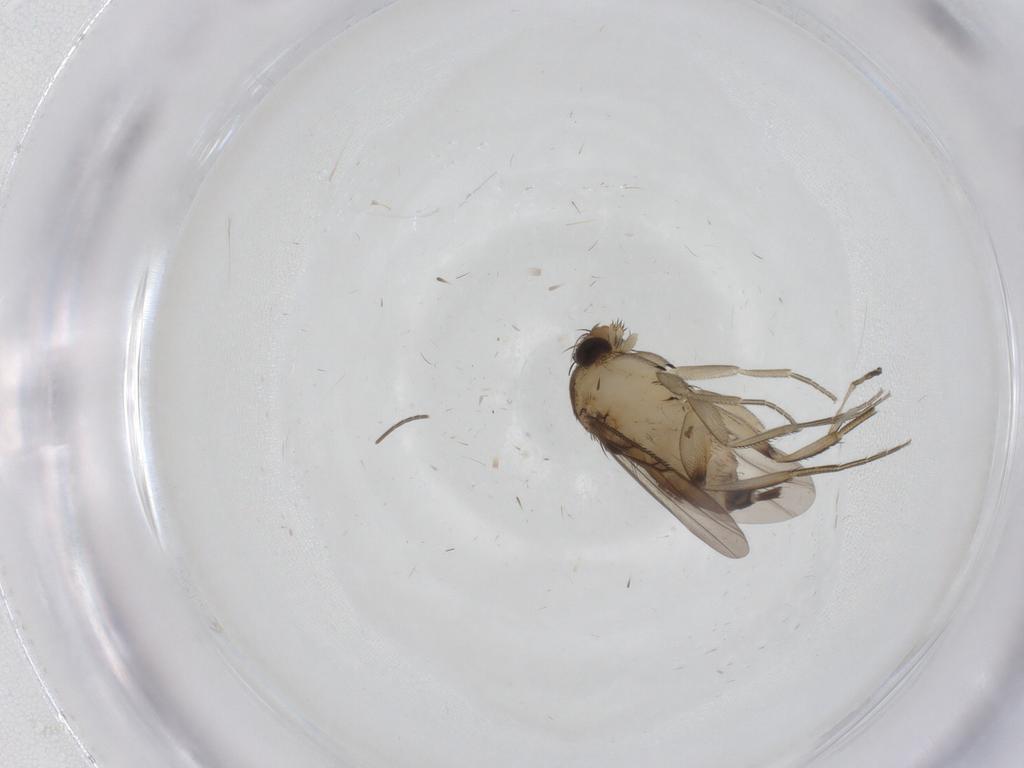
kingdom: Animalia
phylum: Arthropoda
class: Insecta
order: Diptera
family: Phoridae
